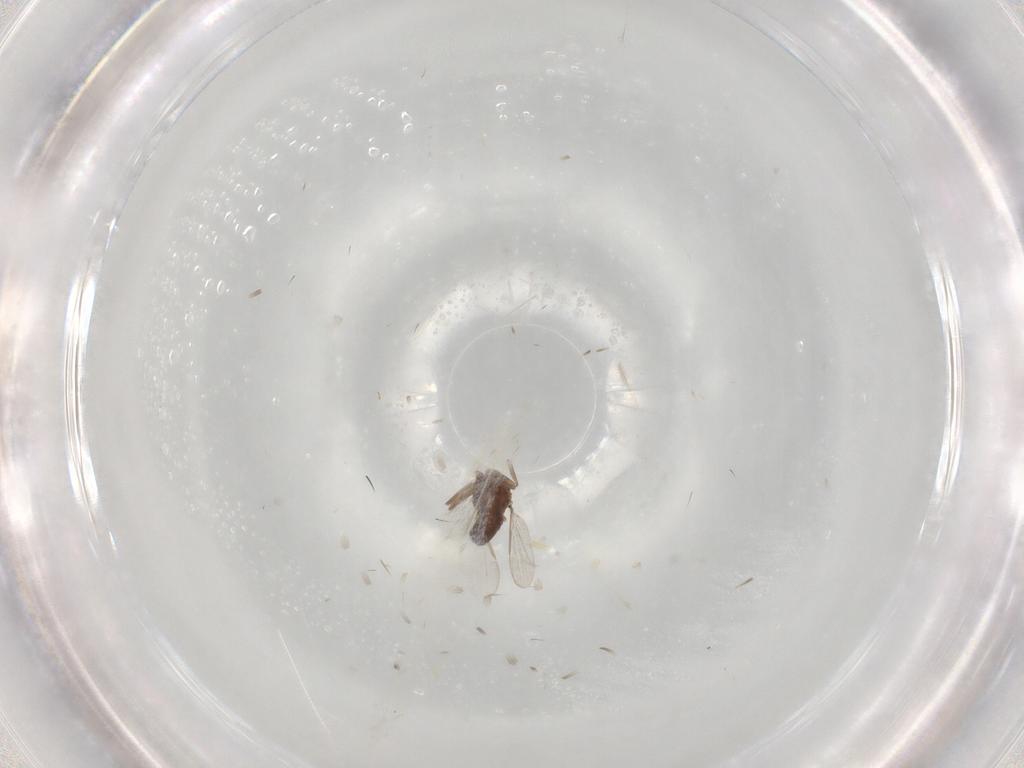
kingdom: Animalia
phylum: Arthropoda
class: Insecta
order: Diptera
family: Ceratopogonidae
